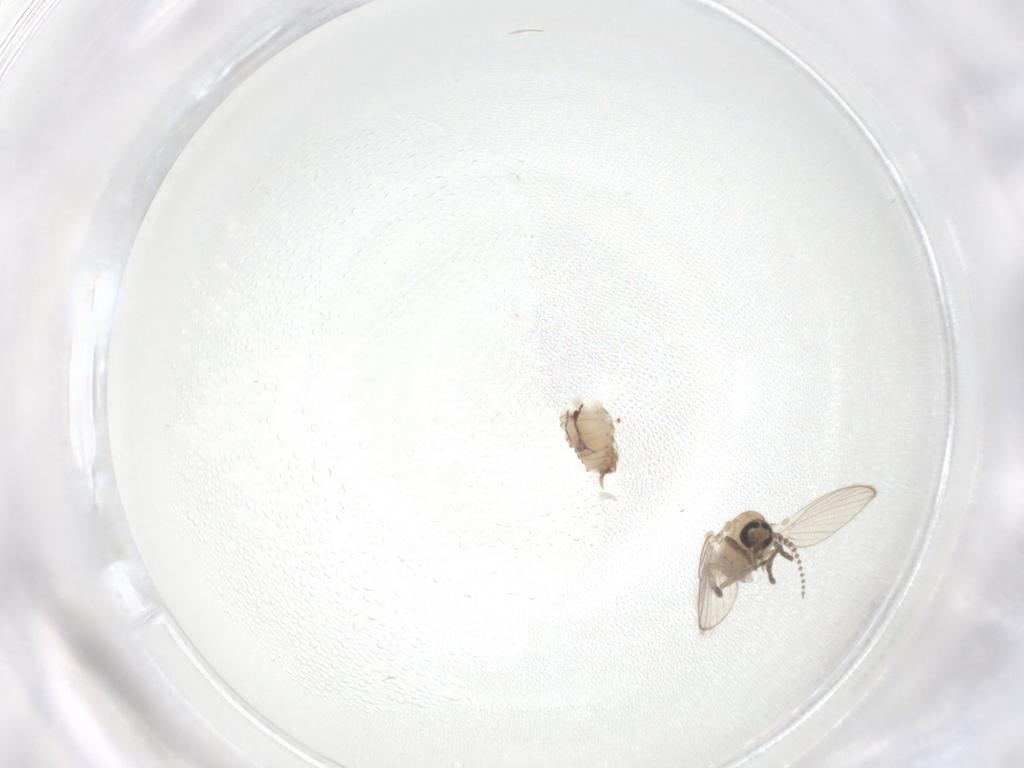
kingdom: Animalia
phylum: Arthropoda
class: Insecta
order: Diptera
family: Psychodidae
